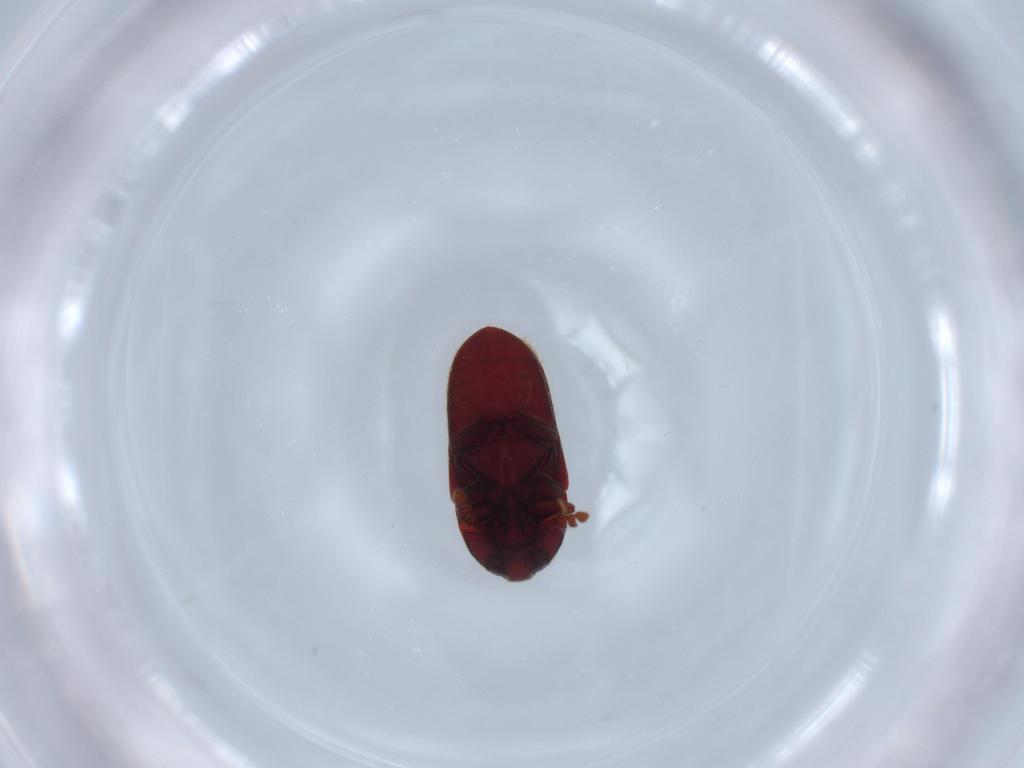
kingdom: Animalia
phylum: Arthropoda
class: Insecta
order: Coleoptera
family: Throscidae
